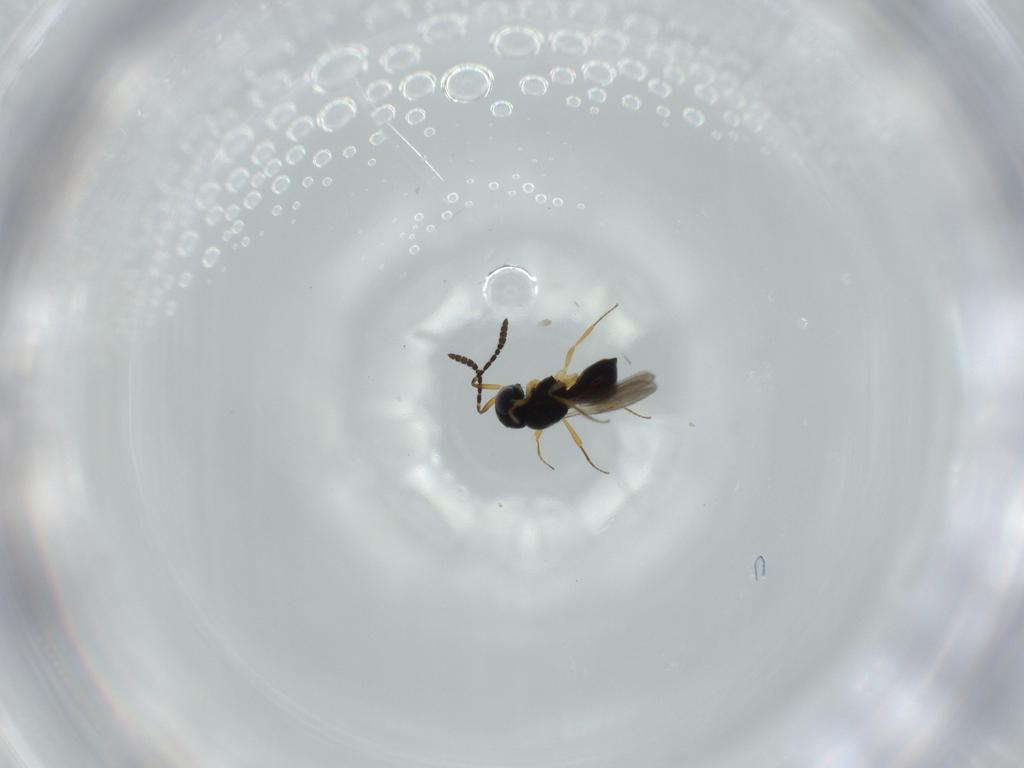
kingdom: Animalia
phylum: Arthropoda
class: Insecta
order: Hymenoptera
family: Scelionidae
